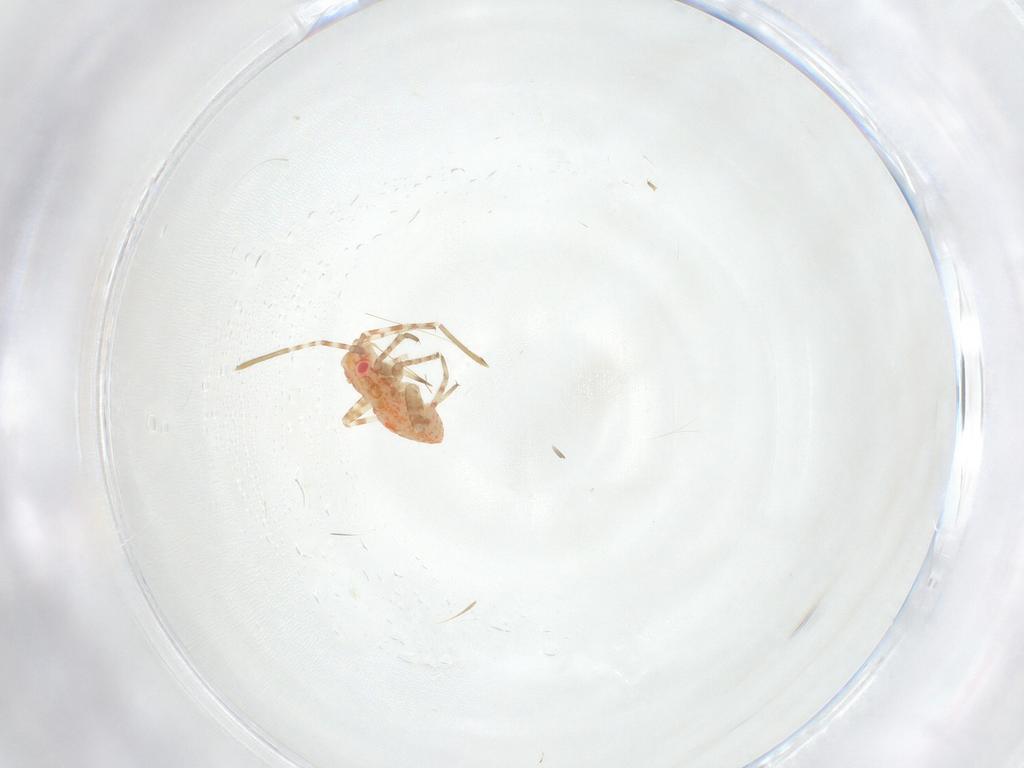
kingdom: Animalia
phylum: Arthropoda
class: Insecta
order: Hemiptera
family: Miridae
